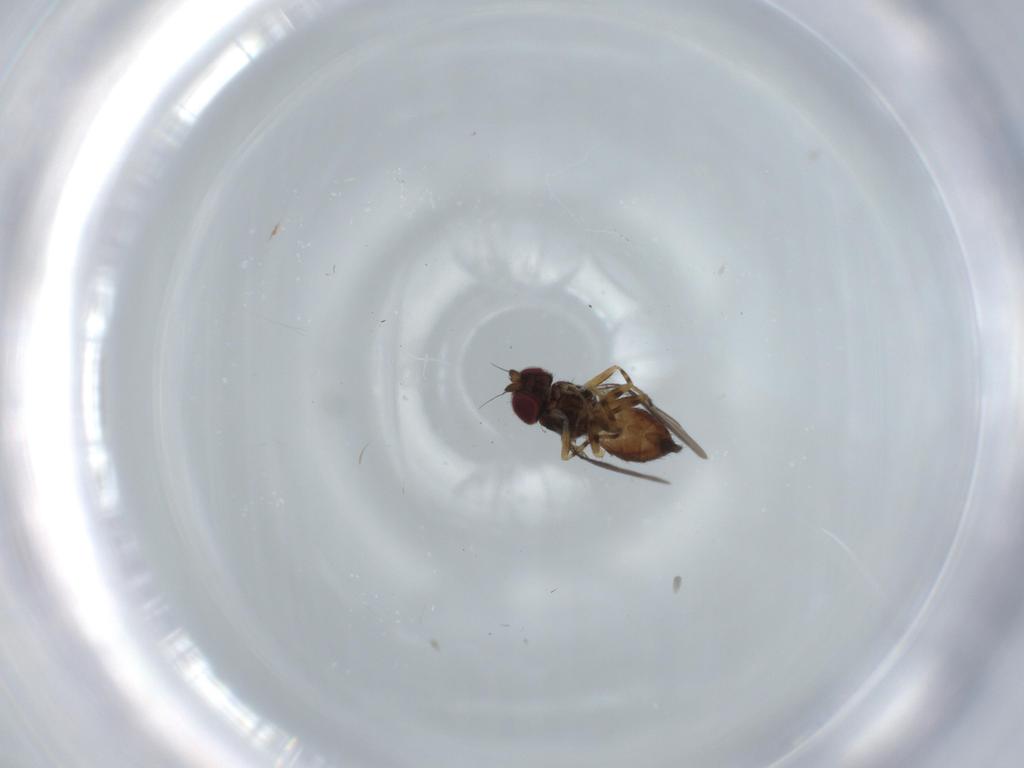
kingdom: Animalia
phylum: Arthropoda
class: Insecta
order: Diptera
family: Chloropidae
